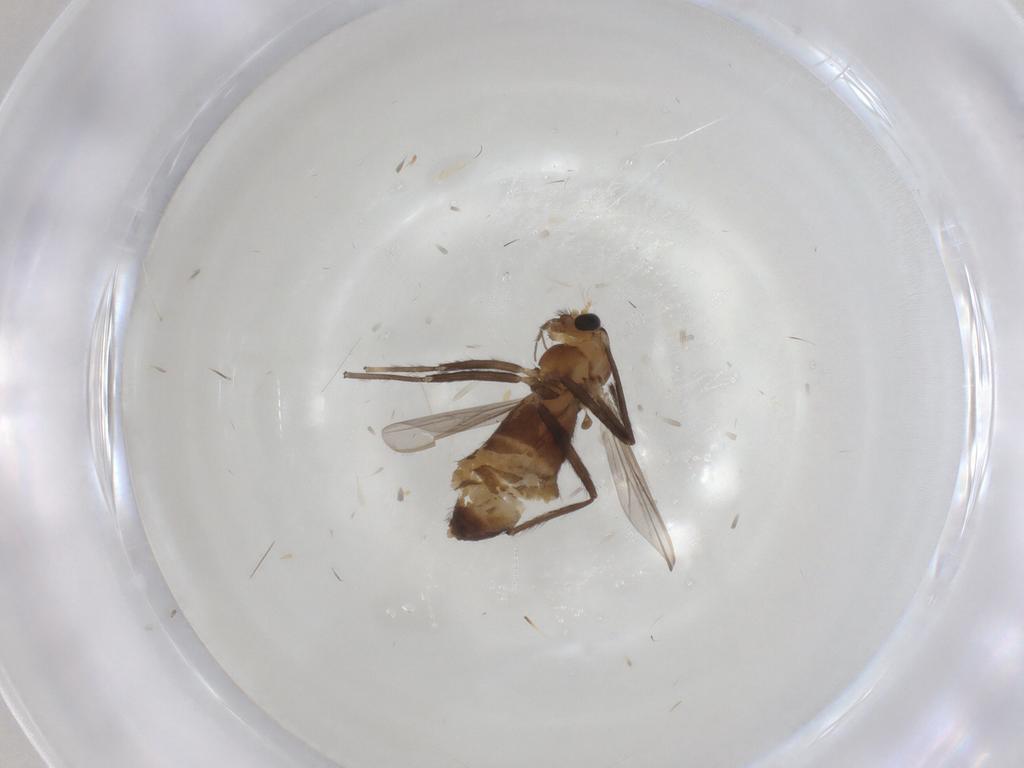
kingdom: Animalia
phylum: Arthropoda
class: Insecta
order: Diptera
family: Chironomidae
